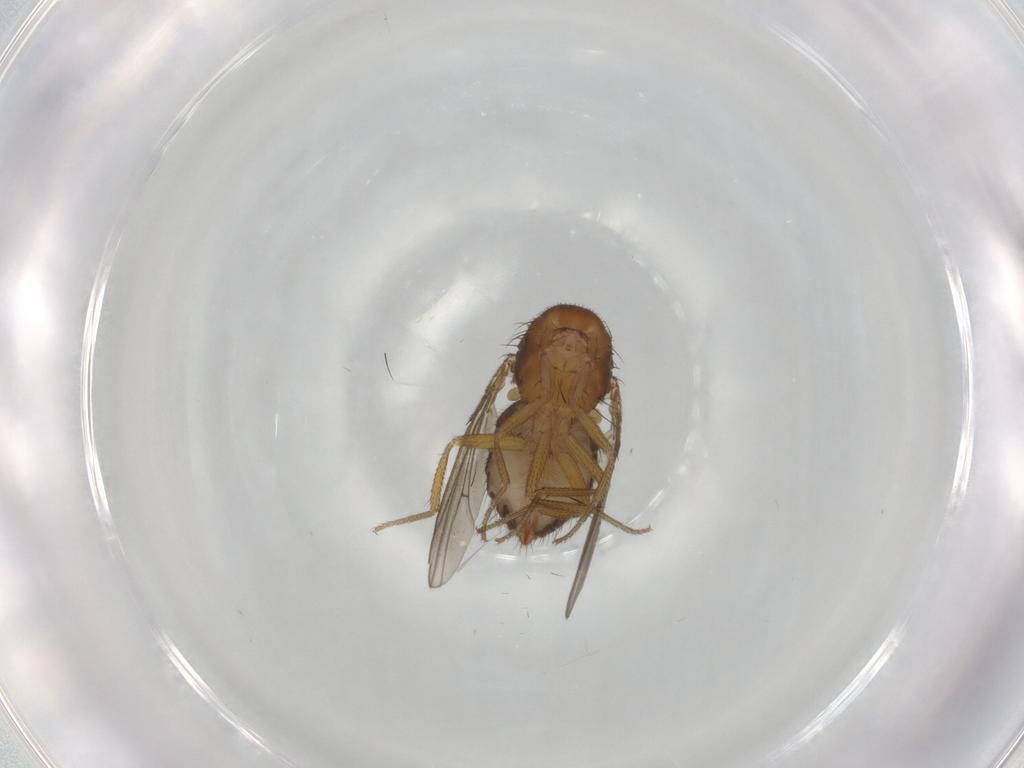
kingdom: Animalia
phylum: Arthropoda
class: Insecta
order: Diptera
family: Drosophilidae
